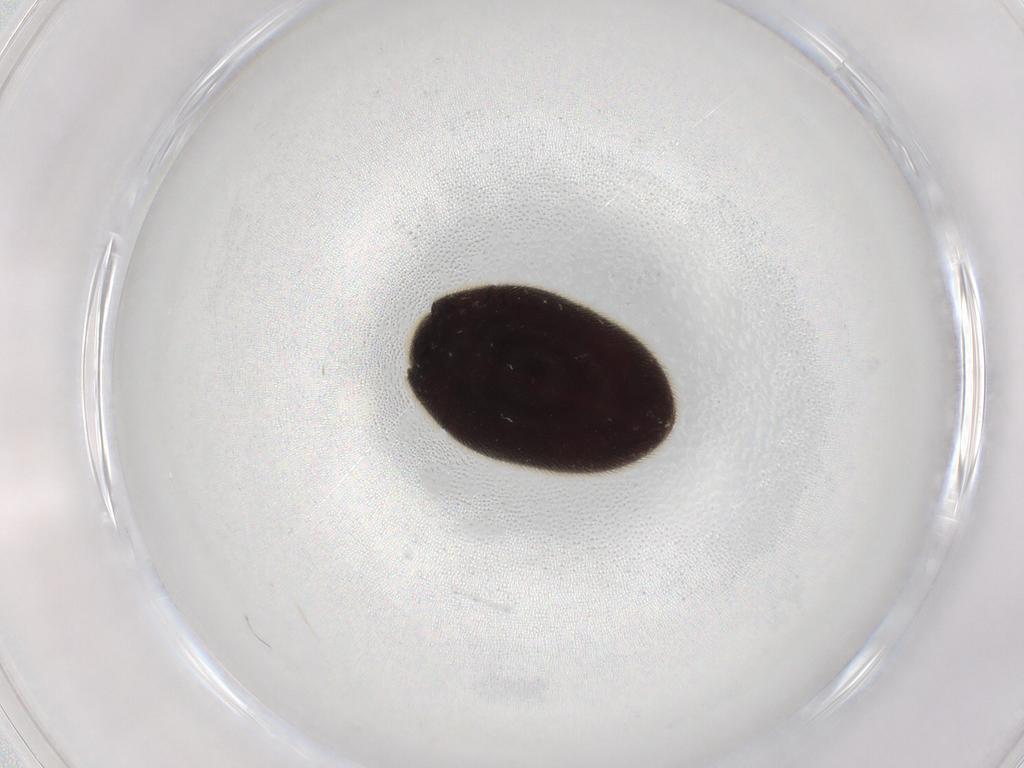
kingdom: Animalia
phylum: Arthropoda
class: Insecta
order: Coleoptera
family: Limnichidae
